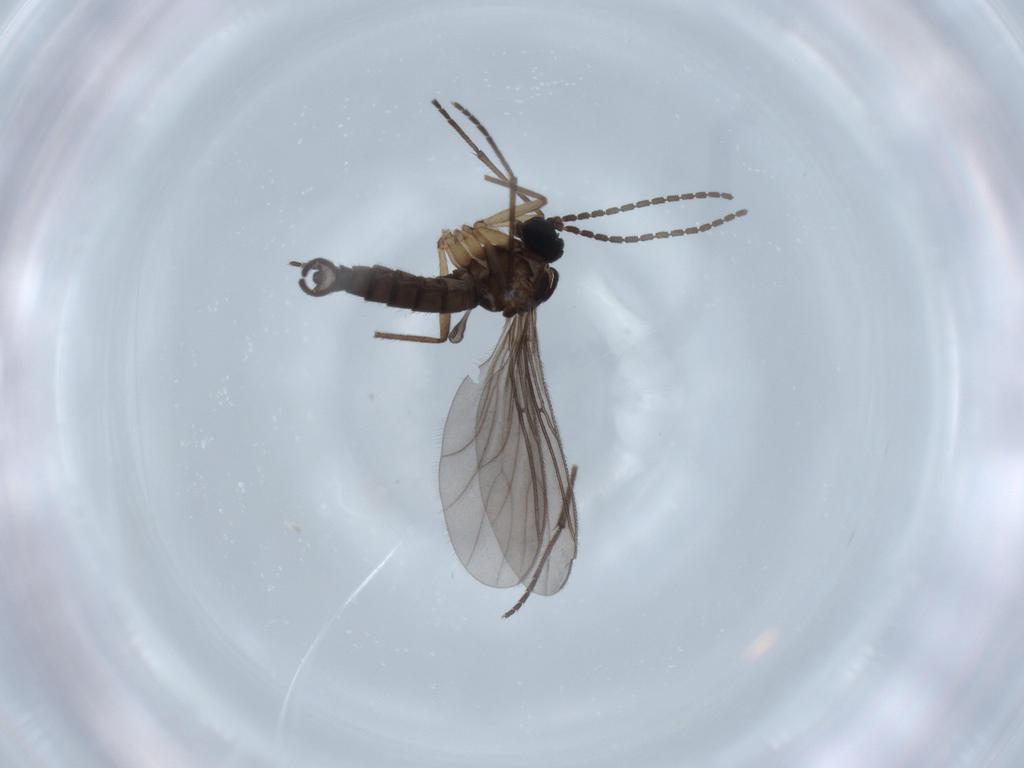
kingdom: Animalia
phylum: Arthropoda
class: Insecta
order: Diptera
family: Sciaridae
